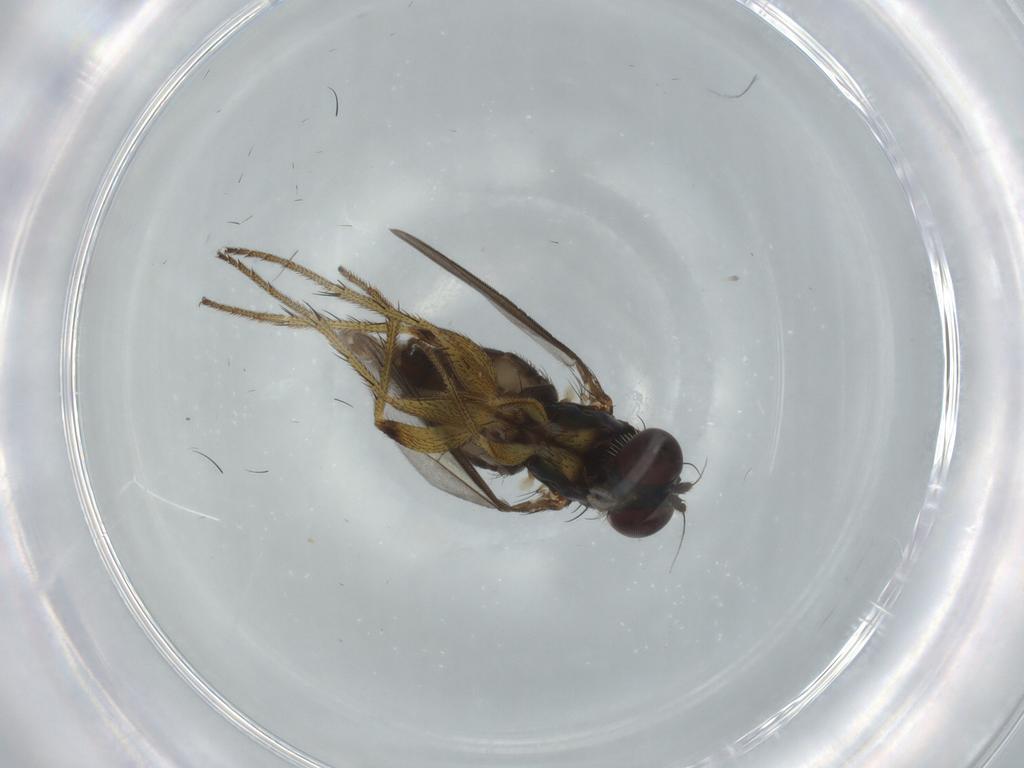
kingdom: Animalia
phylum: Arthropoda
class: Insecta
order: Diptera
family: Dolichopodidae
